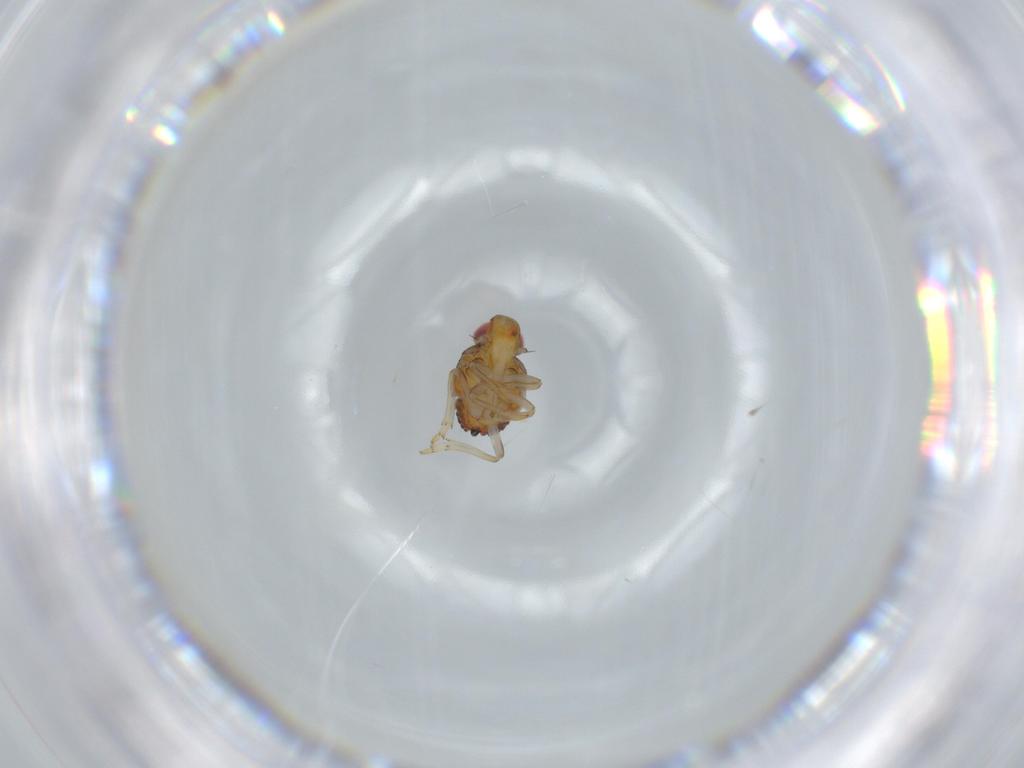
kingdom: Animalia
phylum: Arthropoda
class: Insecta
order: Hemiptera
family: Issidae
